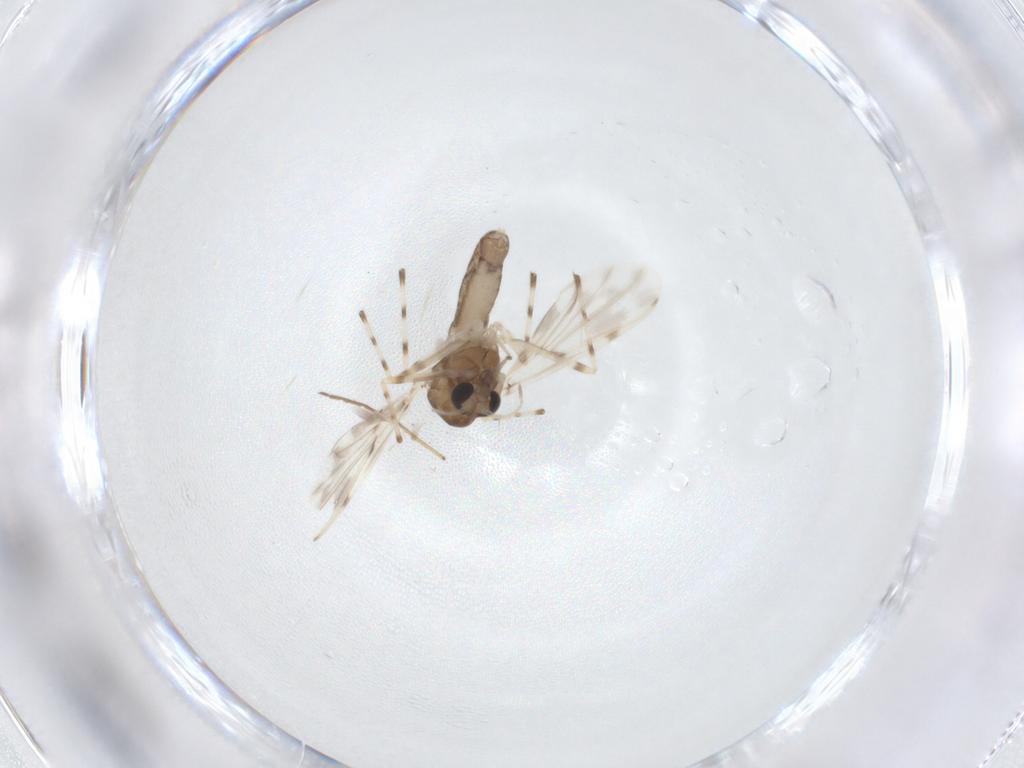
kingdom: Animalia
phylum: Arthropoda
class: Insecta
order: Diptera
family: Chironomidae
